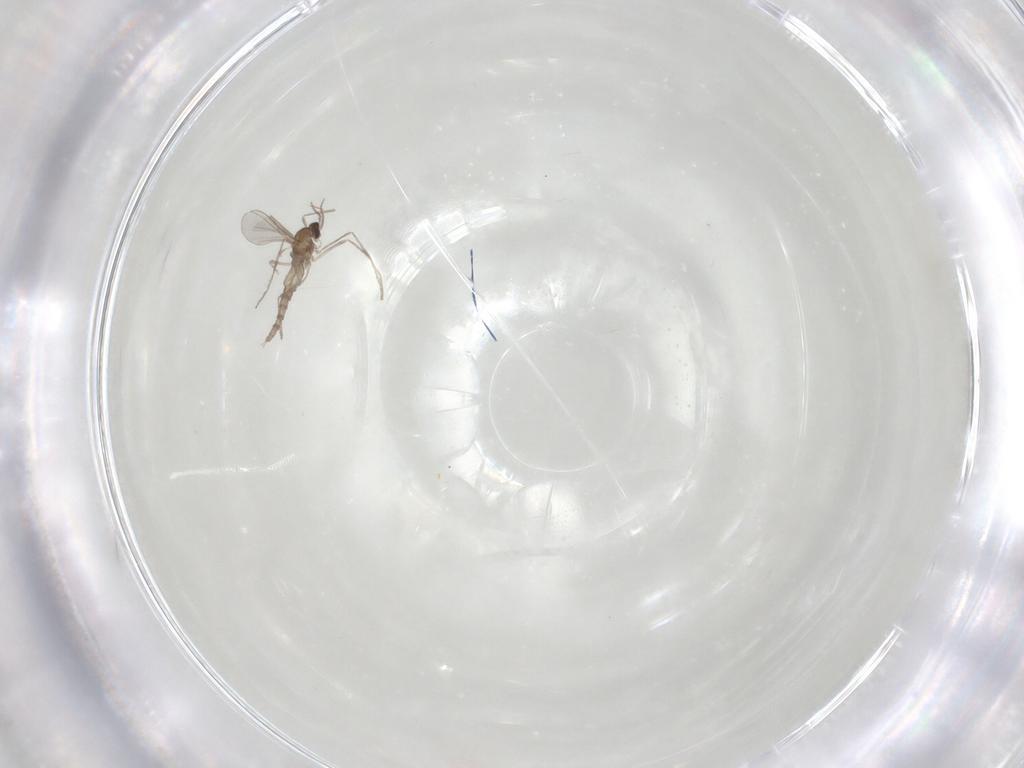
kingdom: Animalia
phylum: Arthropoda
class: Insecta
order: Diptera
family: Cecidomyiidae
